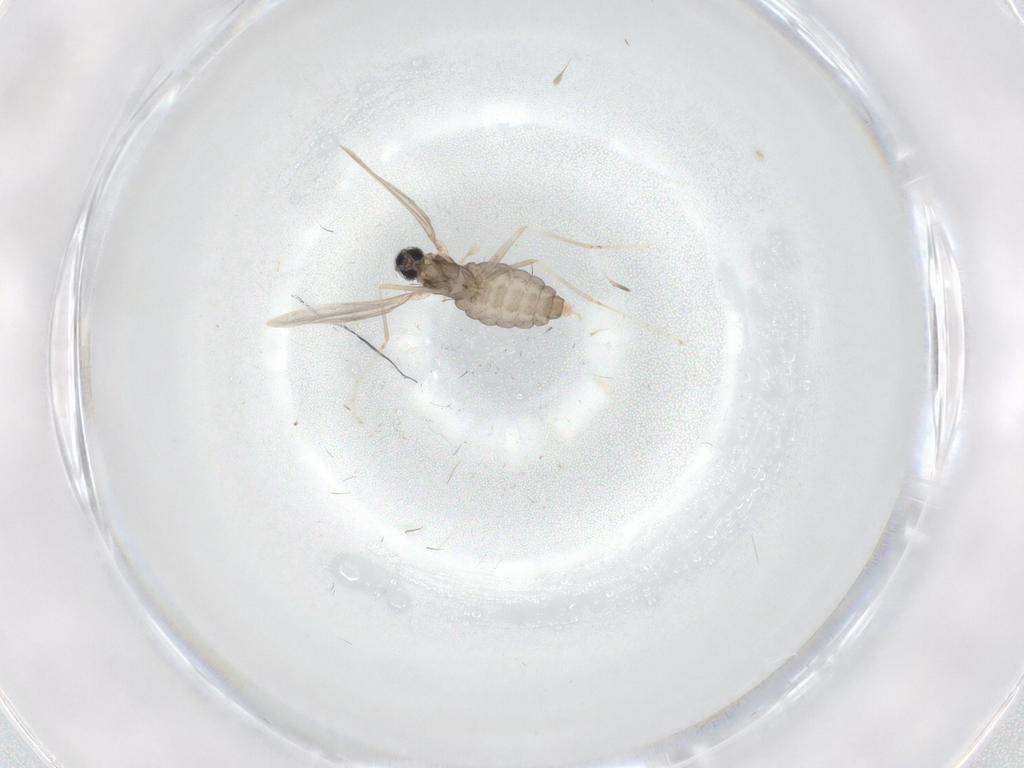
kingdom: Animalia
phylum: Arthropoda
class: Insecta
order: Diptera
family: Cecidomyiidae
